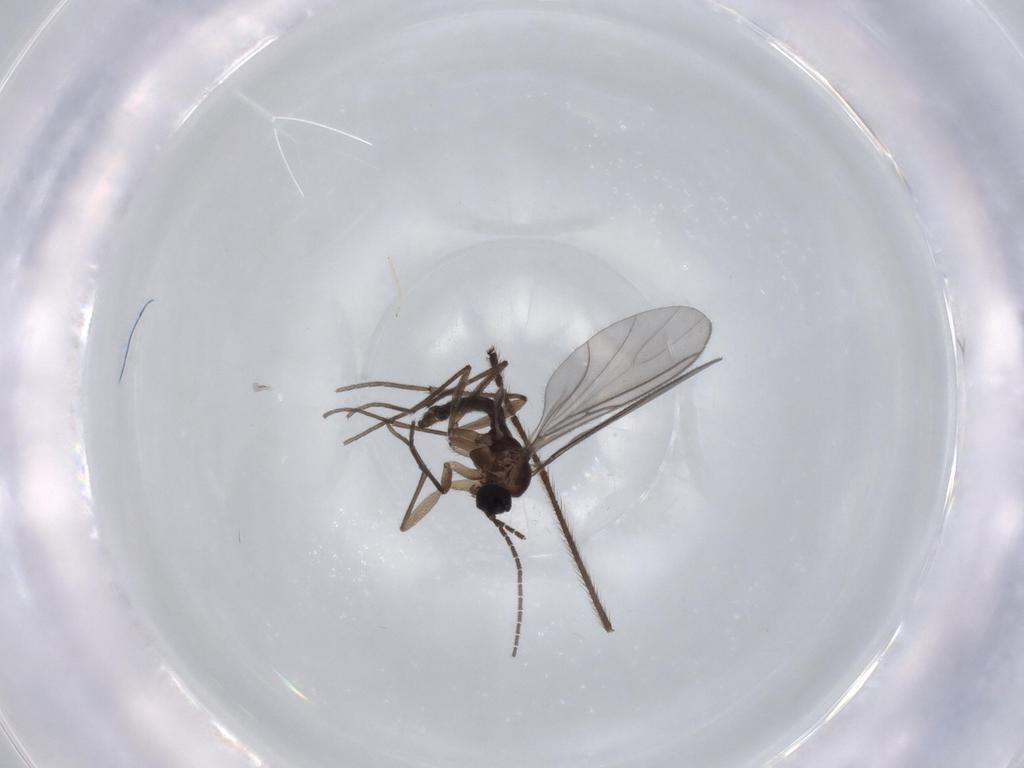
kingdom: Animalia
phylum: Arthropoda
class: Insecta
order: Diptera
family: Sciaridae
